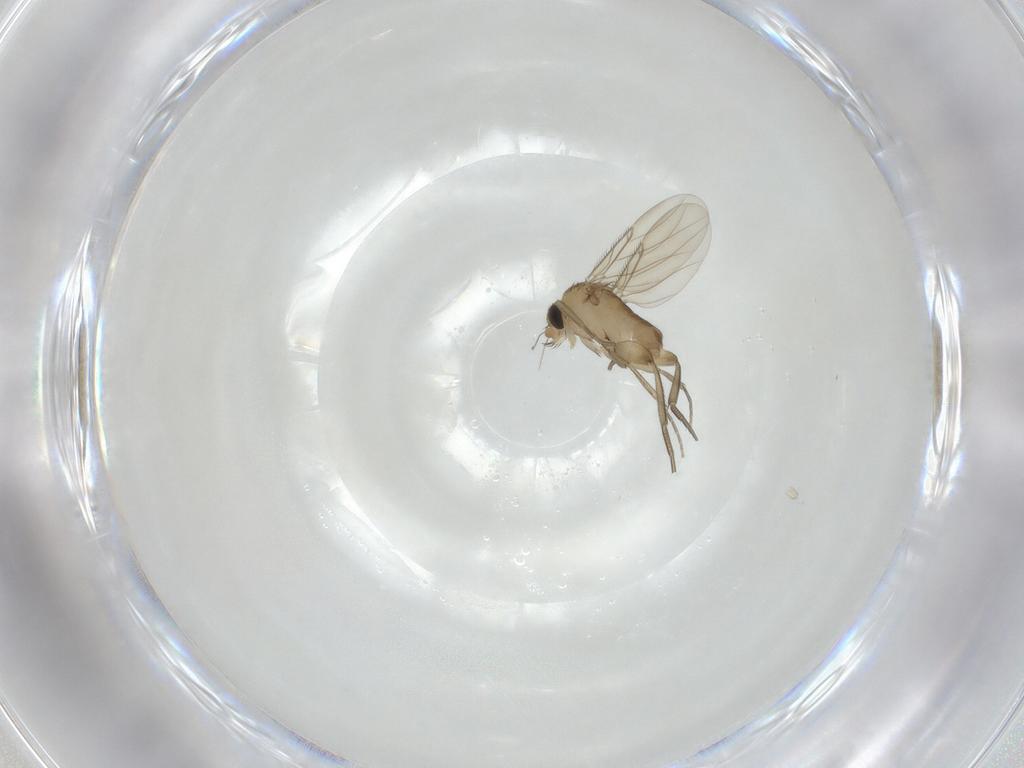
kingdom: Animalia
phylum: Arthropoda
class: Insecta
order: Diptera
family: Phoridae
